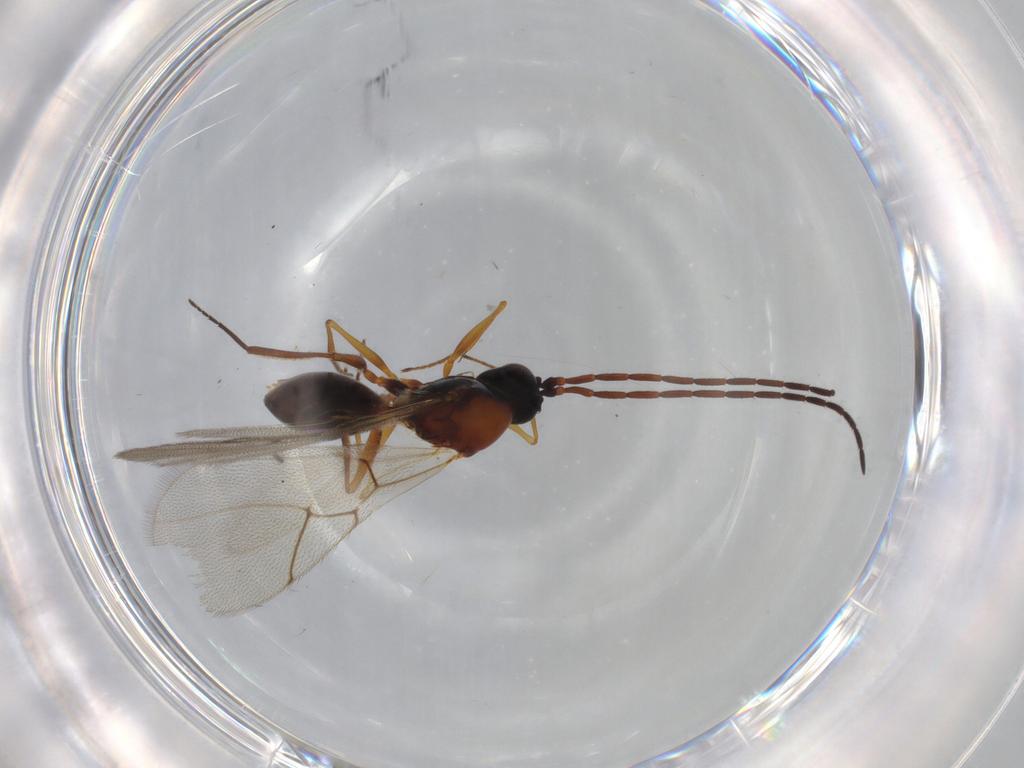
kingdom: Animalia
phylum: Arthropoda
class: Insecta
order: Hymenoptera
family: Figitidae
